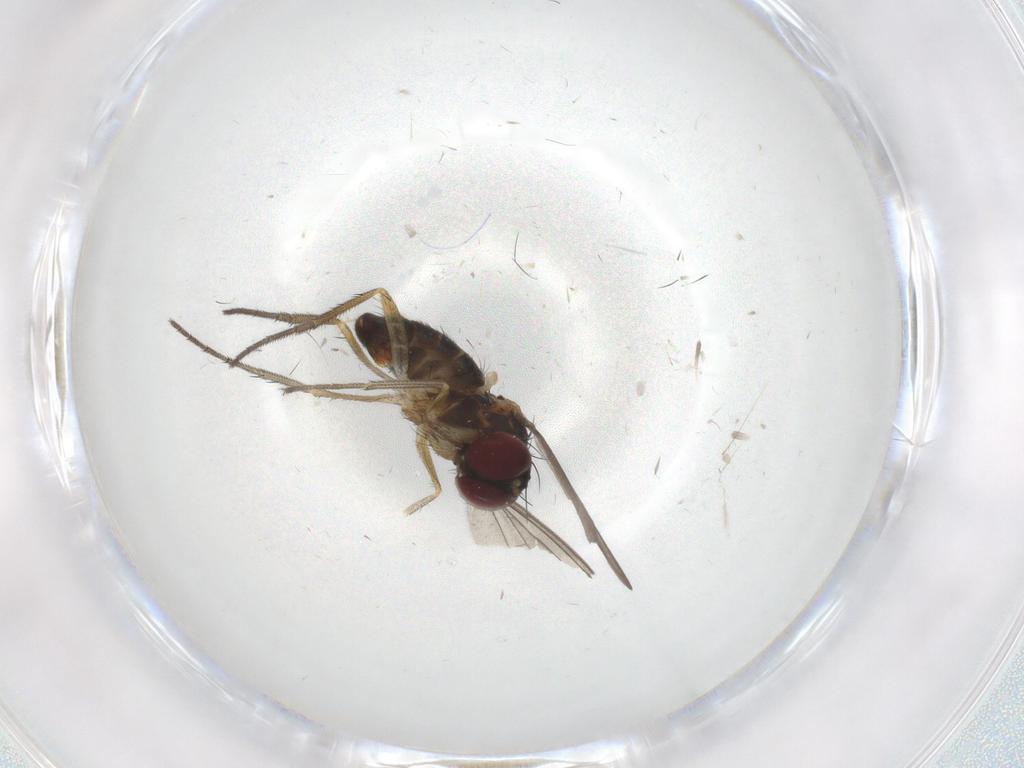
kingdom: Animalia
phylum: Arthropoda
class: Insecta
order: Diptera
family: Dolichopodidae
